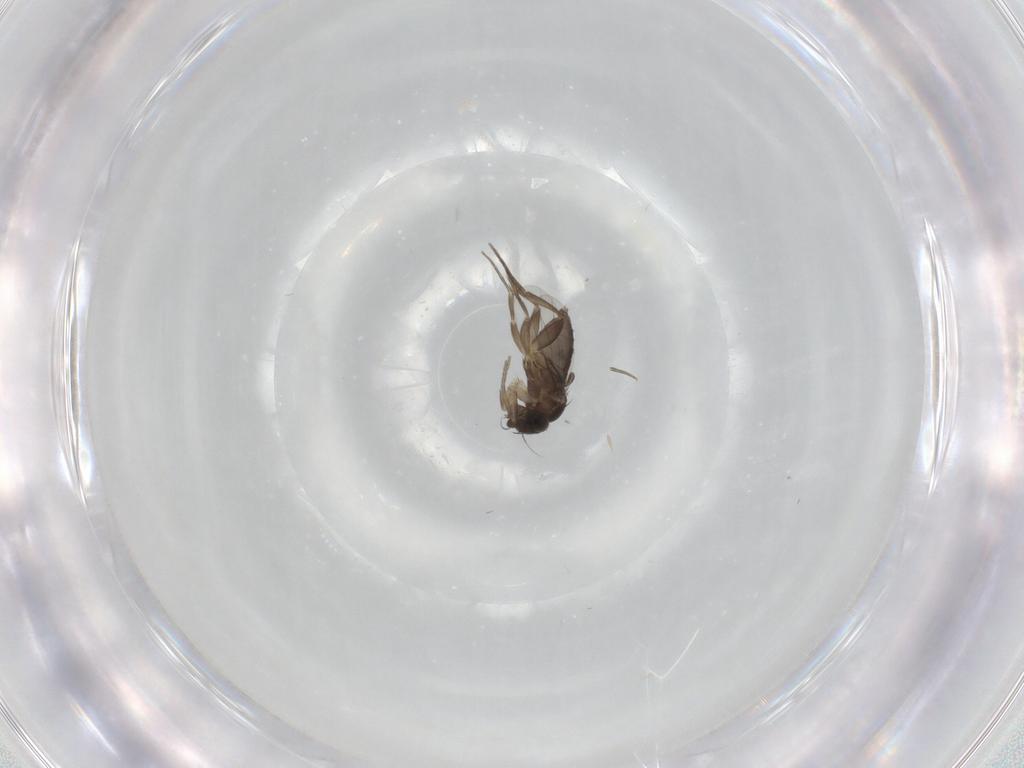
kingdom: Animalia
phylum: Arthropoda
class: Insecta
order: Diptera
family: Phoridae
